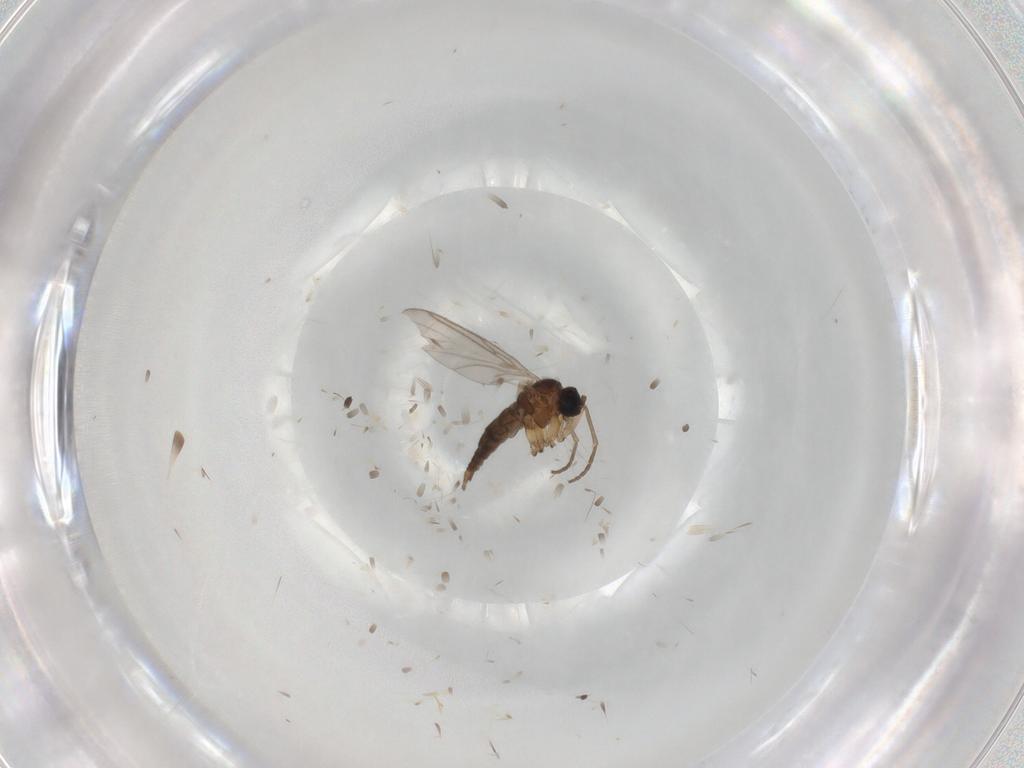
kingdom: Animalia
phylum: Arthropoda
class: Insecta
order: Diptera
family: Sciaridae
